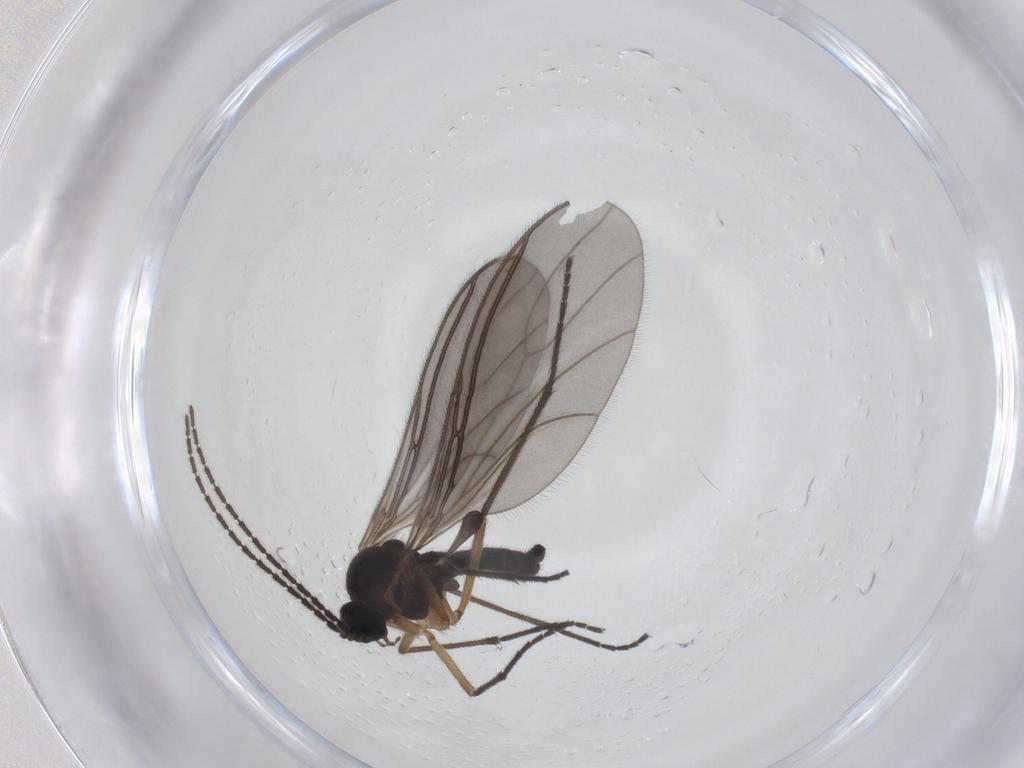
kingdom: Animalia
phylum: Arthropoda
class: Insecta
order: Diptera
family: Sciaridae
